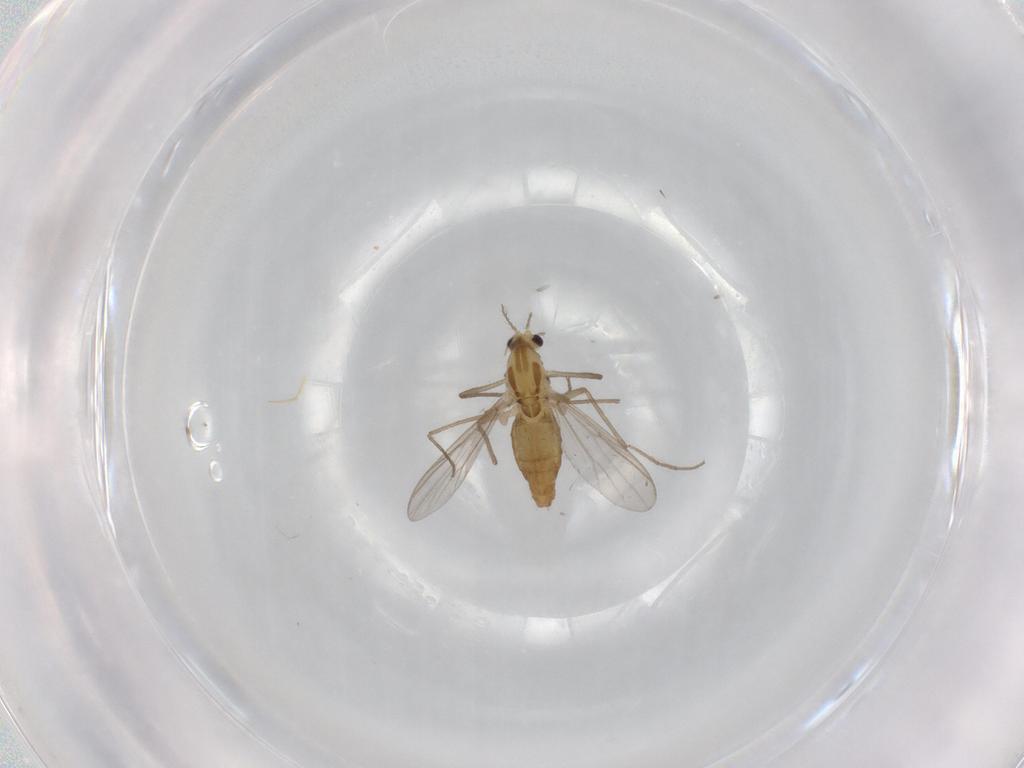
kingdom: Animalia
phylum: Arthropoda
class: Insecta
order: Diptera
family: Chironomidae
